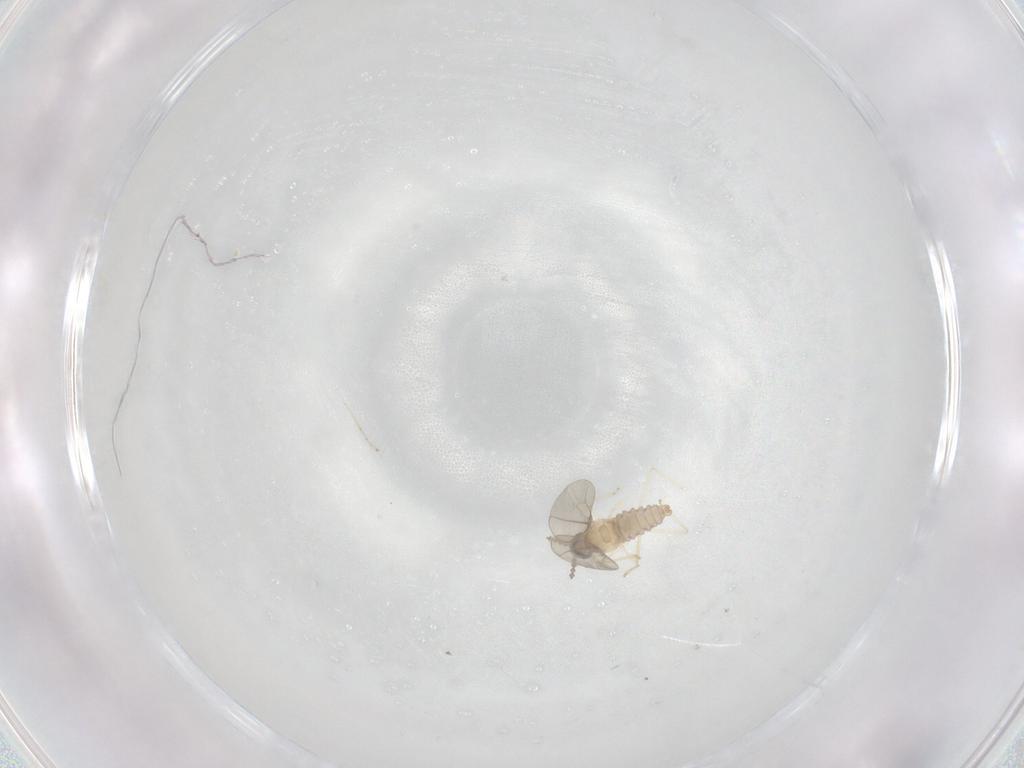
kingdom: Animalia
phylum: Arthropoda
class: Insecta
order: Diptera
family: Cecidomyiidae
